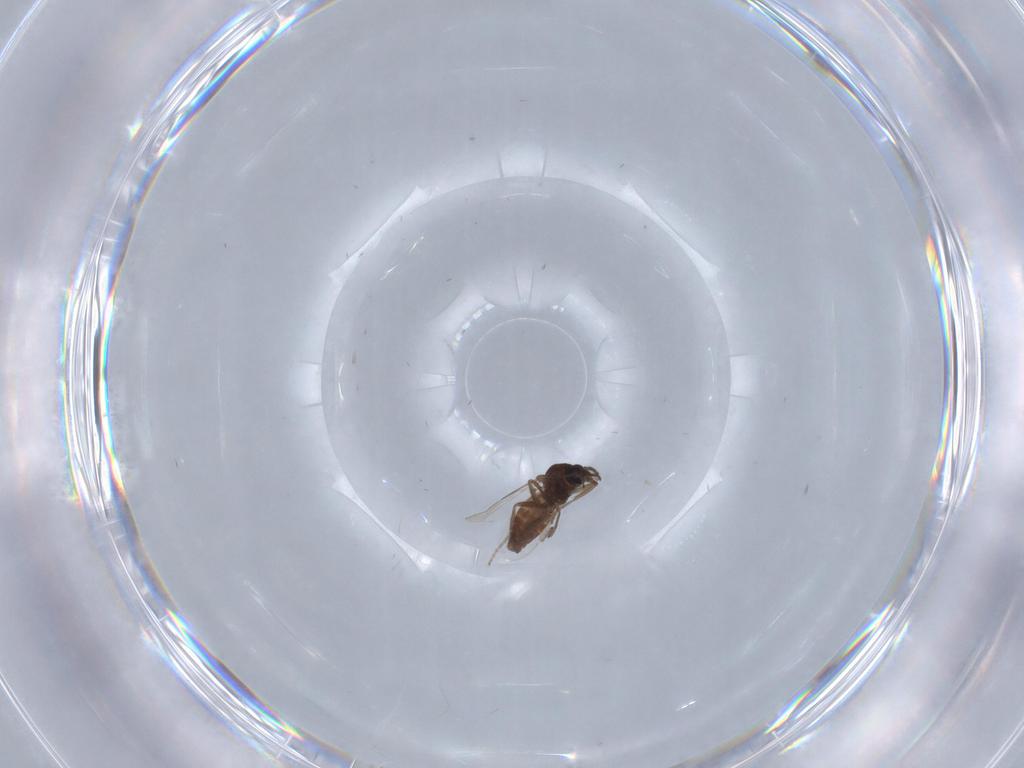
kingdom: Animalia
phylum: Arthropoda
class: Insecta
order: Diptera
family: Ceratopogonidae
